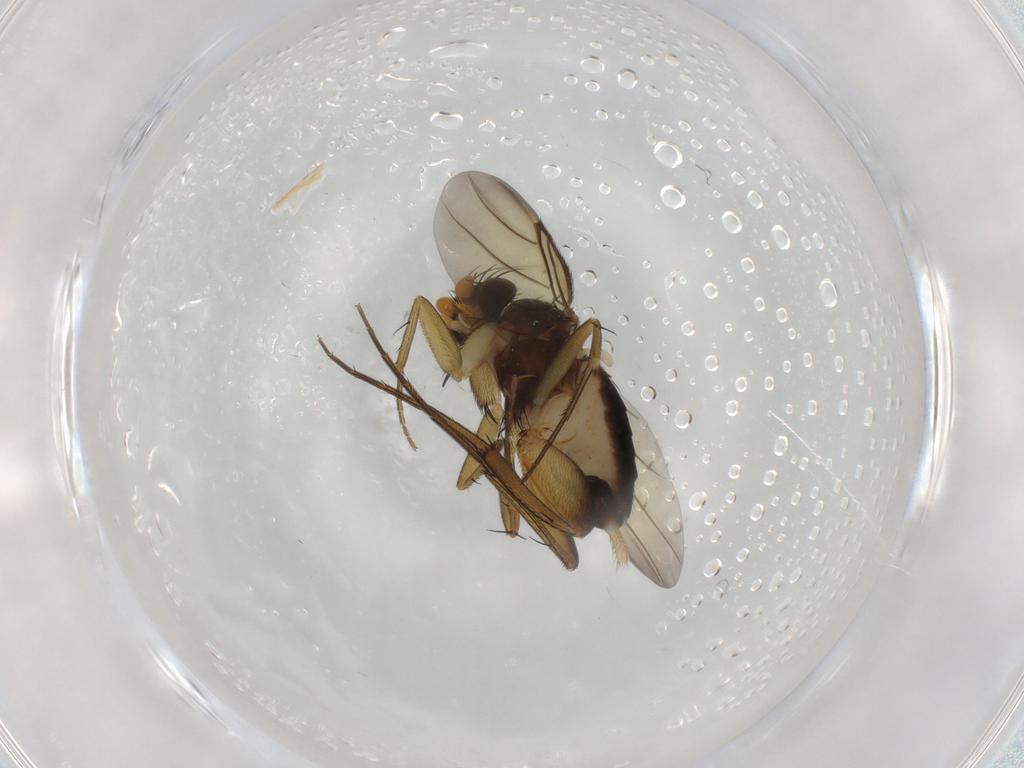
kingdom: Animalia
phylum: Arthropoda
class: Insecta
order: Diptera
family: Phoridae
